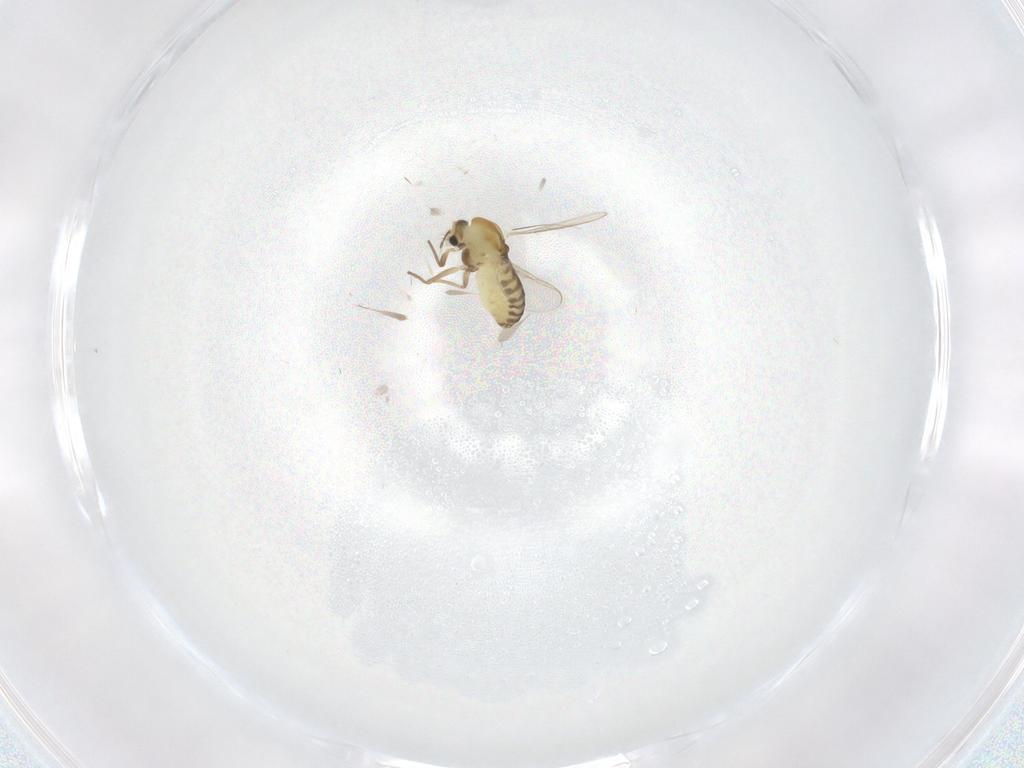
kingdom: Animalia
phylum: Arthropoda
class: Insecta
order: Diptera
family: Chironomidae
